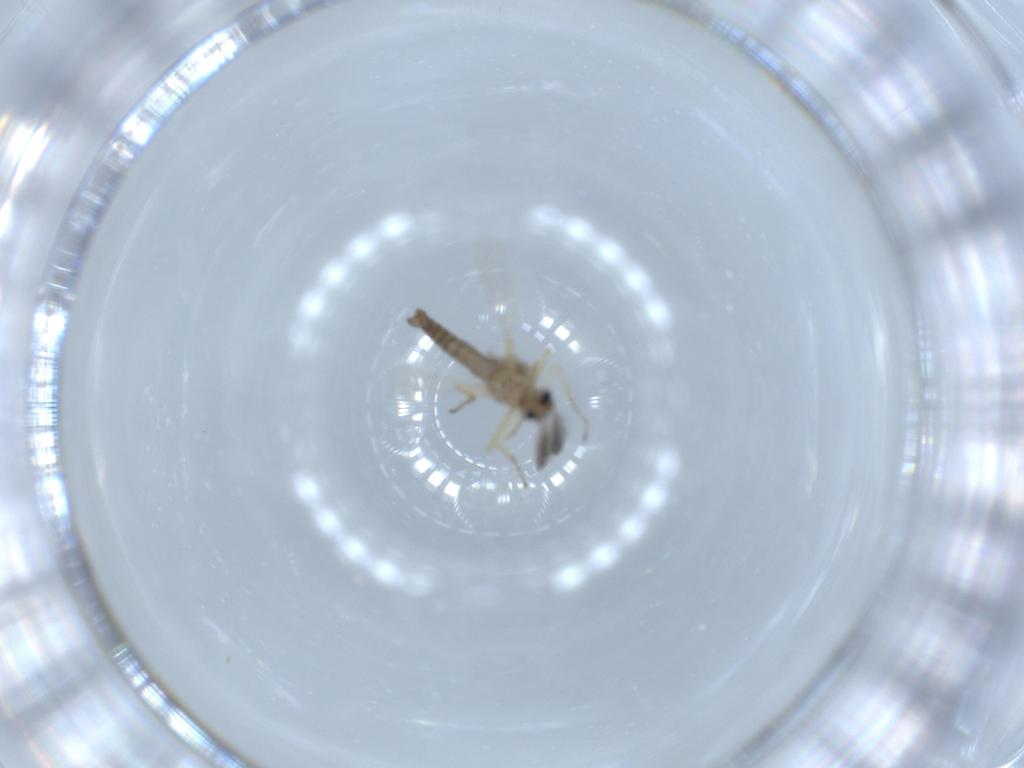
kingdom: Animalia
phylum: Arthropoda
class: Insecta
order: Diptera
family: Ceratopogonidae
